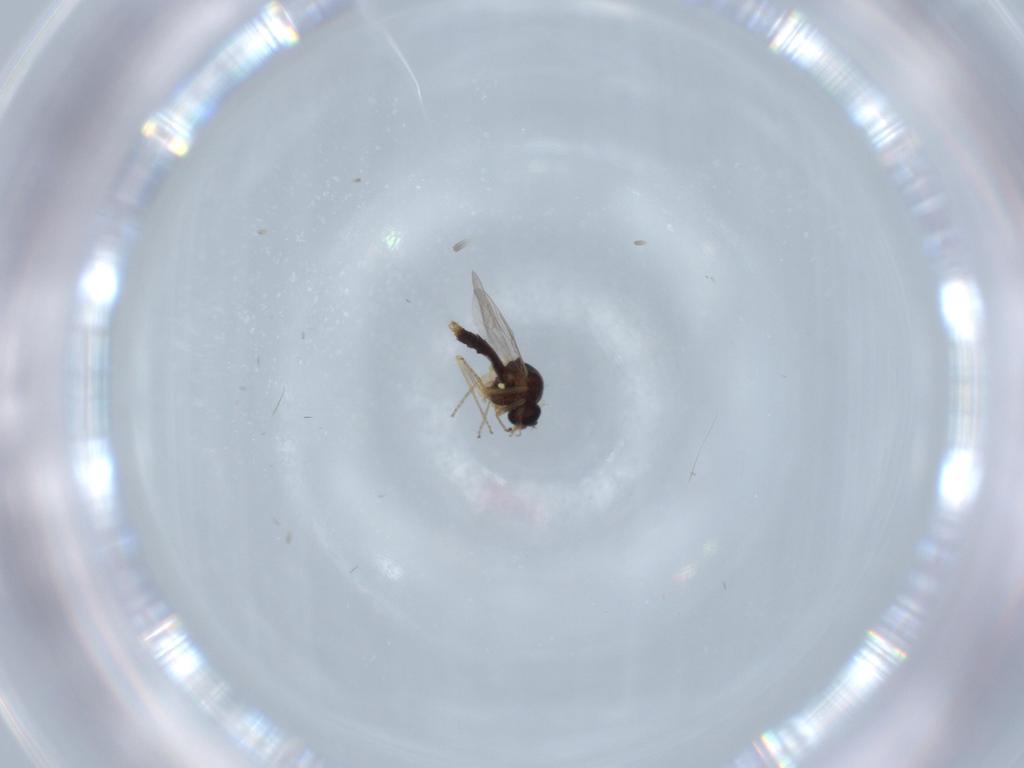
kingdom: Animalia
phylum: Arthropoda
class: Insecta
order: Diptera
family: Ceratopogonidae
